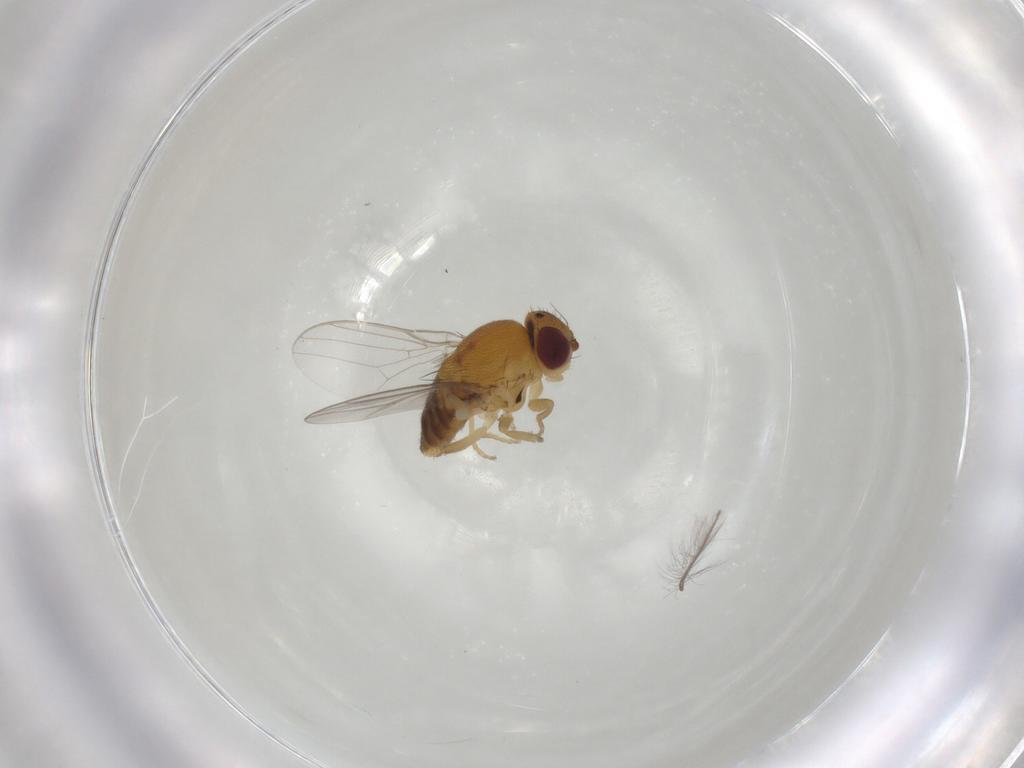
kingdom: Animalia
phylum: Arthropoda
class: Insecta
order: Diptera
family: Chloropidae
